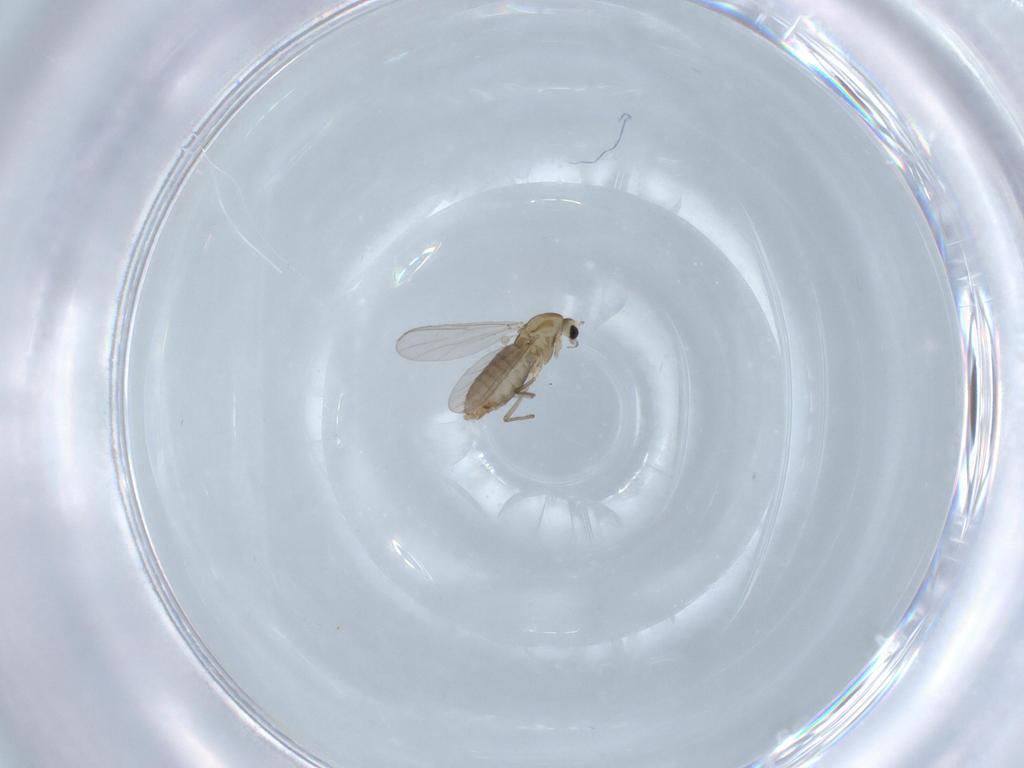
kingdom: Animalia
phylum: Arthropoda
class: Insecta
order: Diptera
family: Chironomidae
